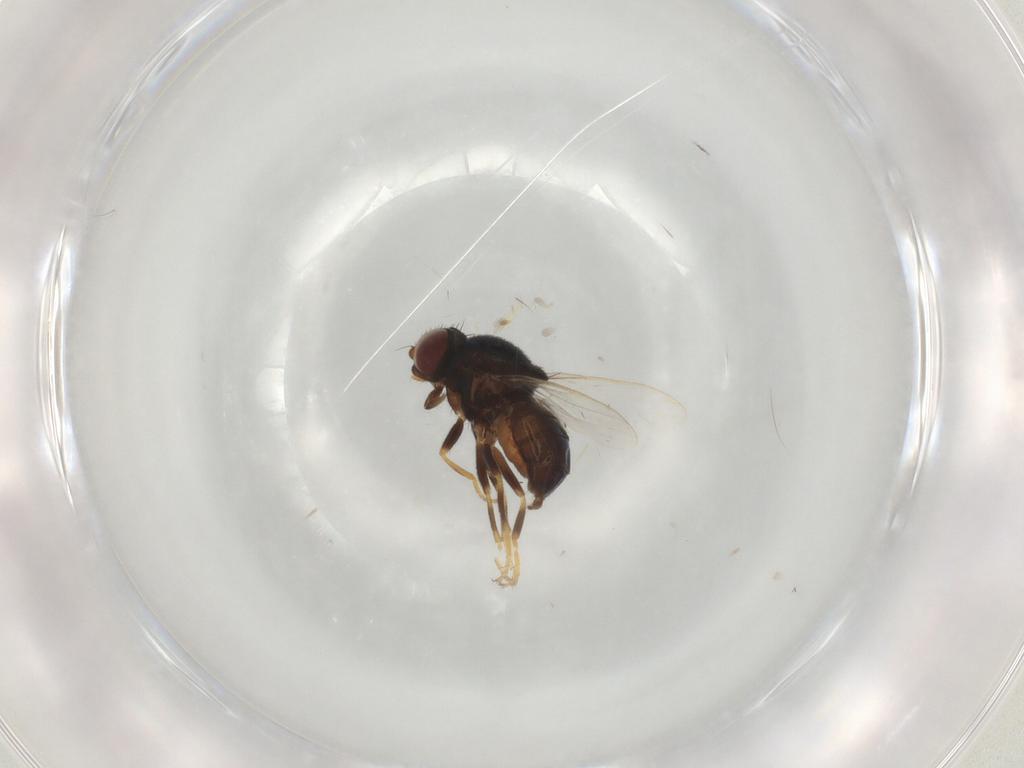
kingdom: Animalia
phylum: Arthropoda
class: Insecta
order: Diptera
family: Chloropidae
